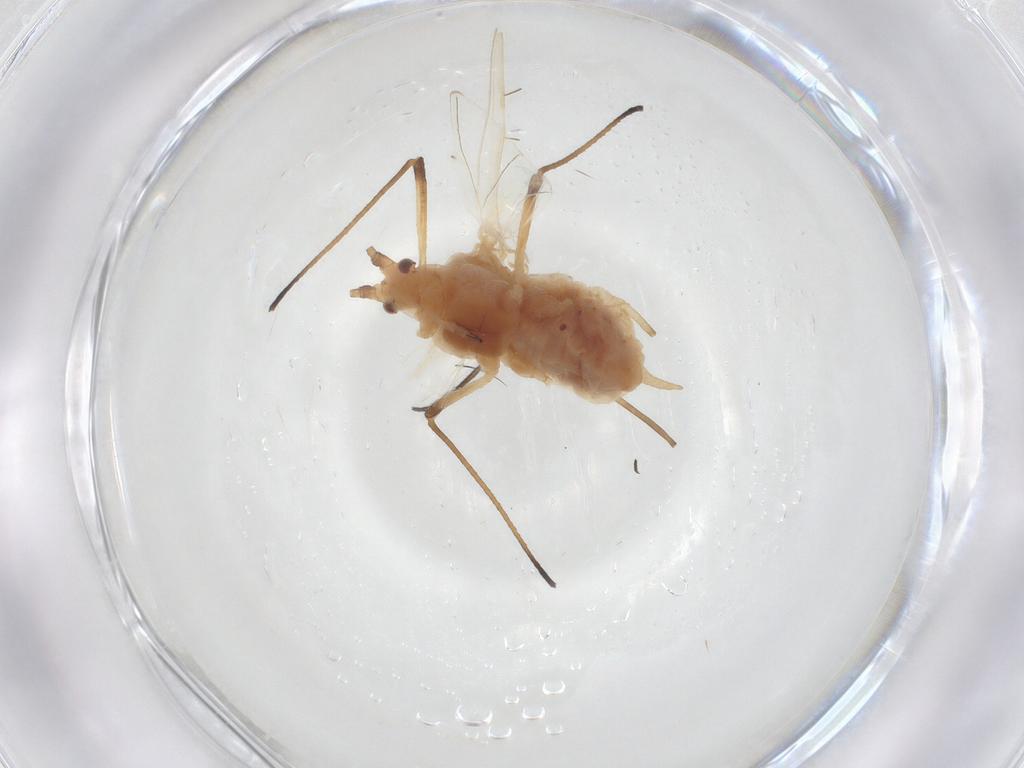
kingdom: Animalia
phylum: Arthropoda
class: Insecta
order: Hemiptera
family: Aphididae
